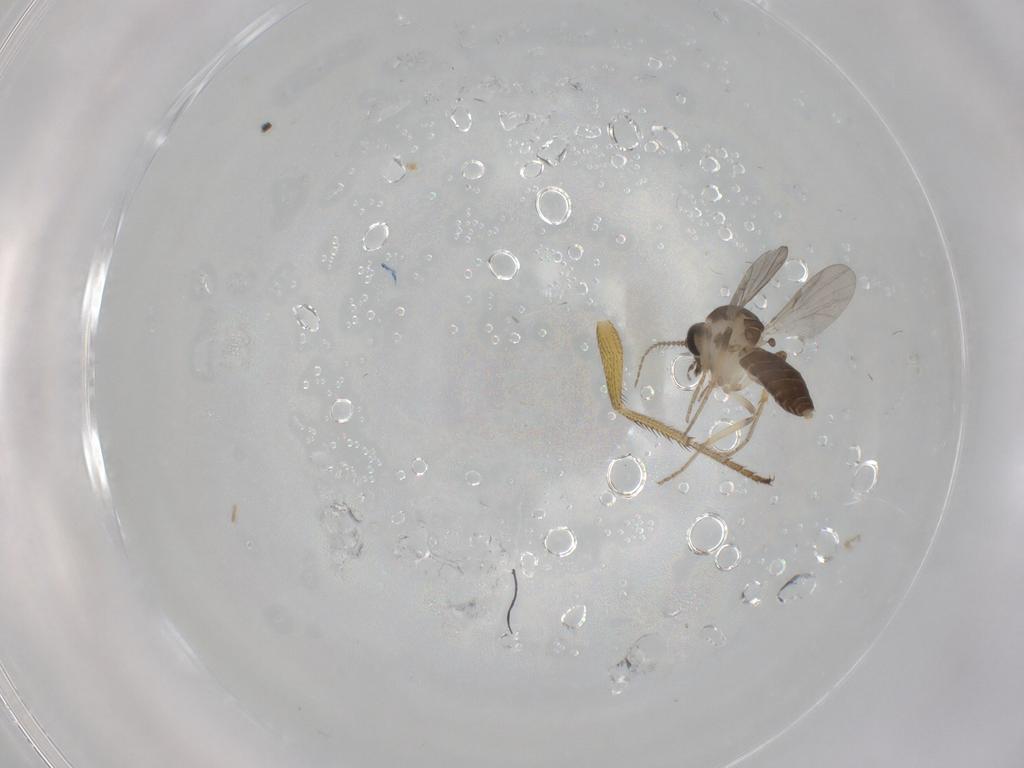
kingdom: Animalia
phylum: Arthropoda
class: Insecta
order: Diptera
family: Ceratopogonidae
